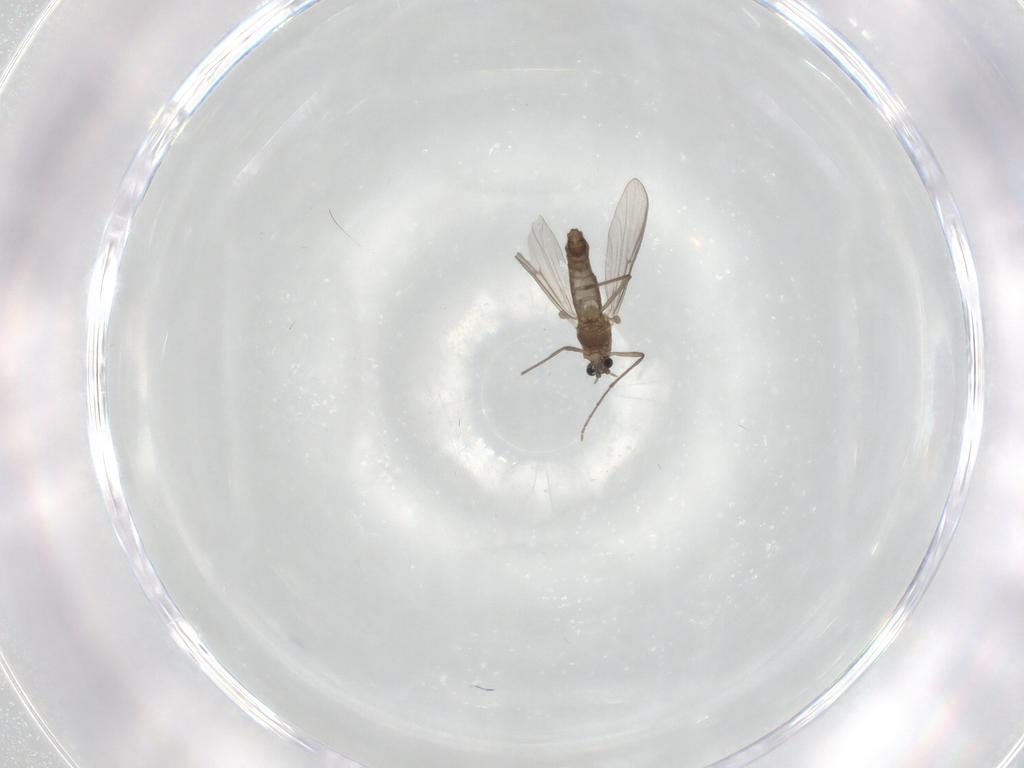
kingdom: Animalia
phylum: Arthropoda
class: Insecta
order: Diptera
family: Chironomidae
